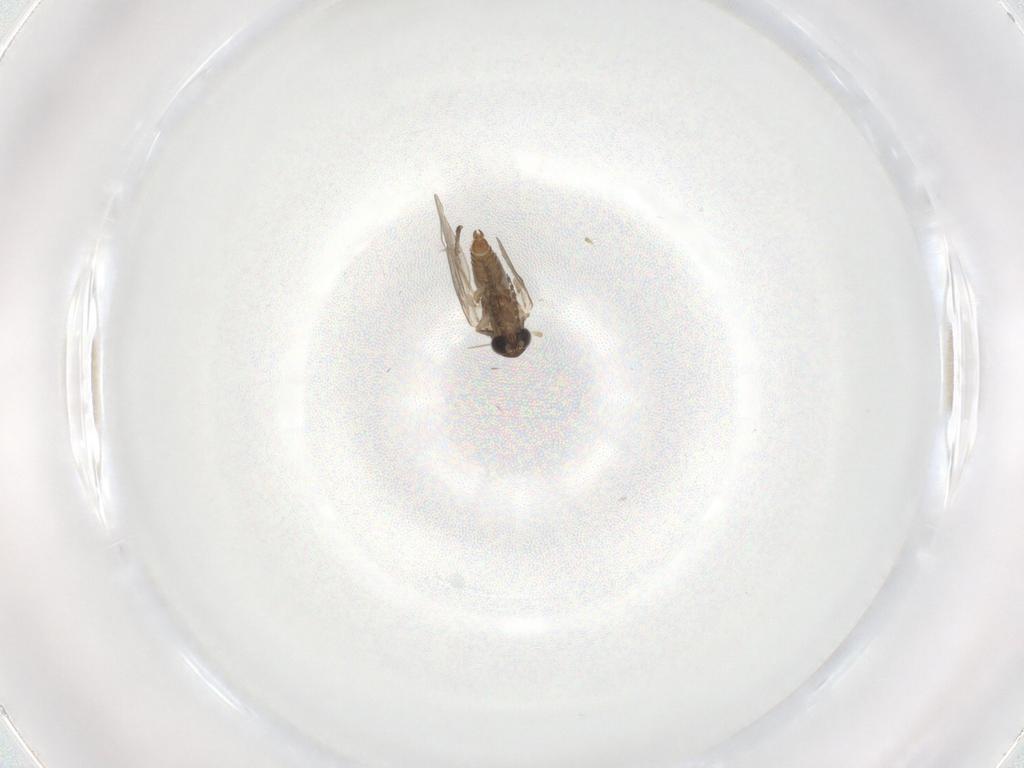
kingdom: Animalia
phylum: Arthropoda
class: Insecta
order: Diptera
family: Psychodidae
